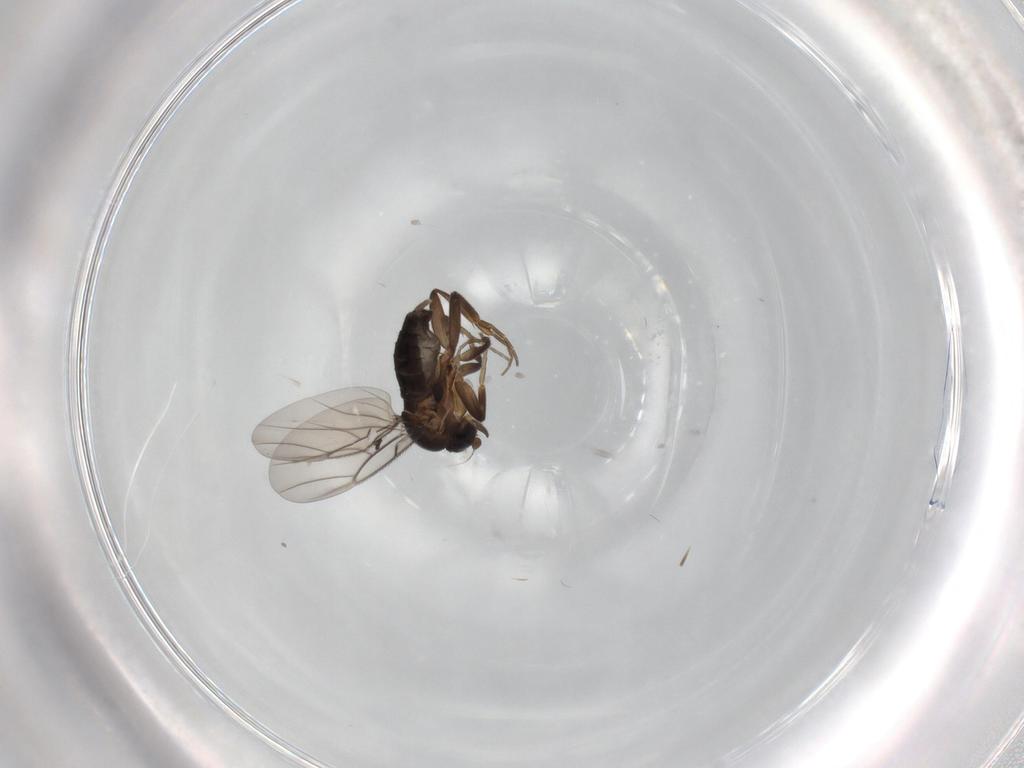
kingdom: Animalia
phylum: Arthropoda
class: Insecta
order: Diptera
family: Phoridae
